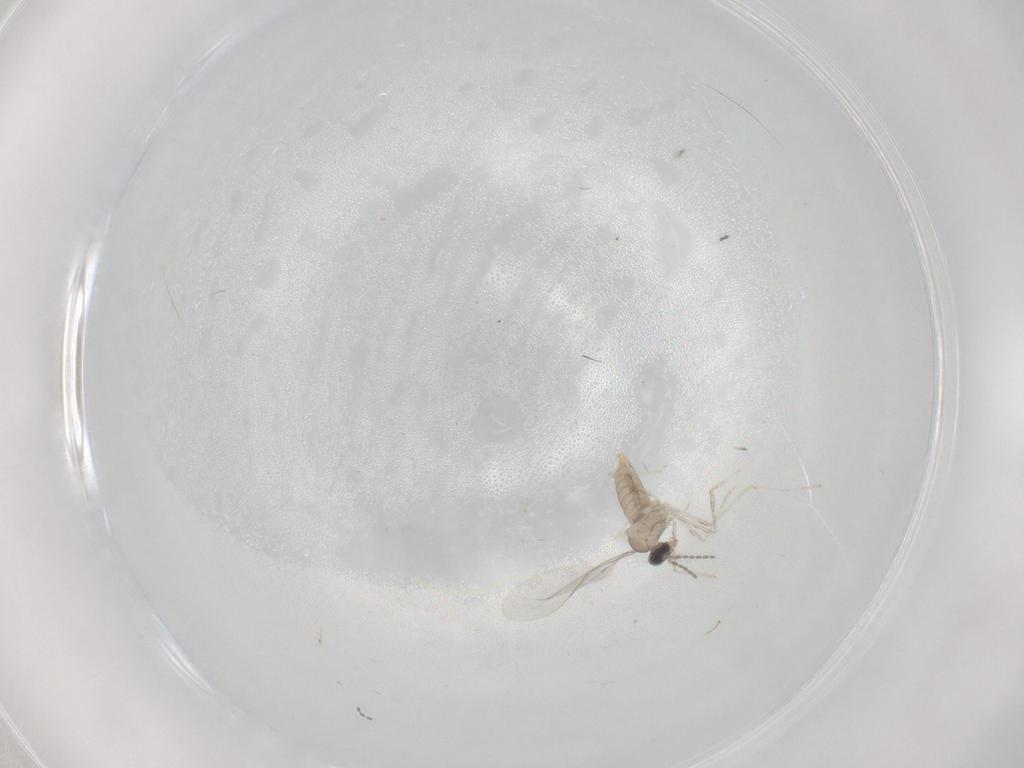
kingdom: Animalia
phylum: Arthropoda
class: Insecta
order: Diptera
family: Cecidomyiidae
